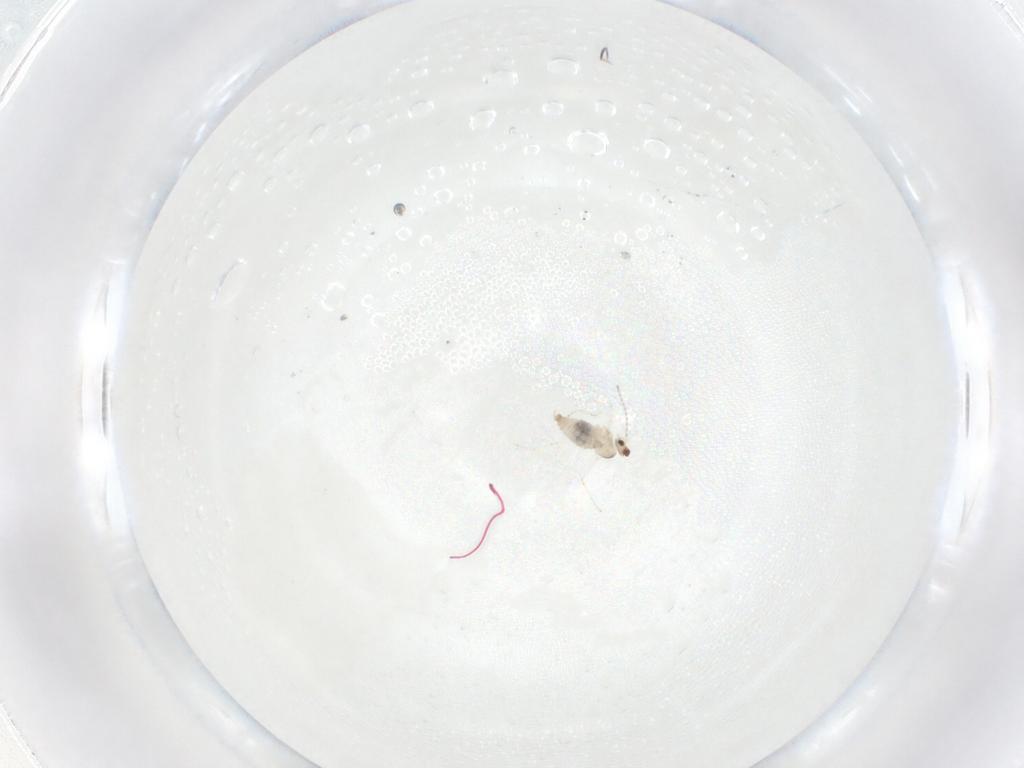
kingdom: Animalia
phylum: Arthropoda
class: Insecta
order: Diptera
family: Cecidomyiidae
